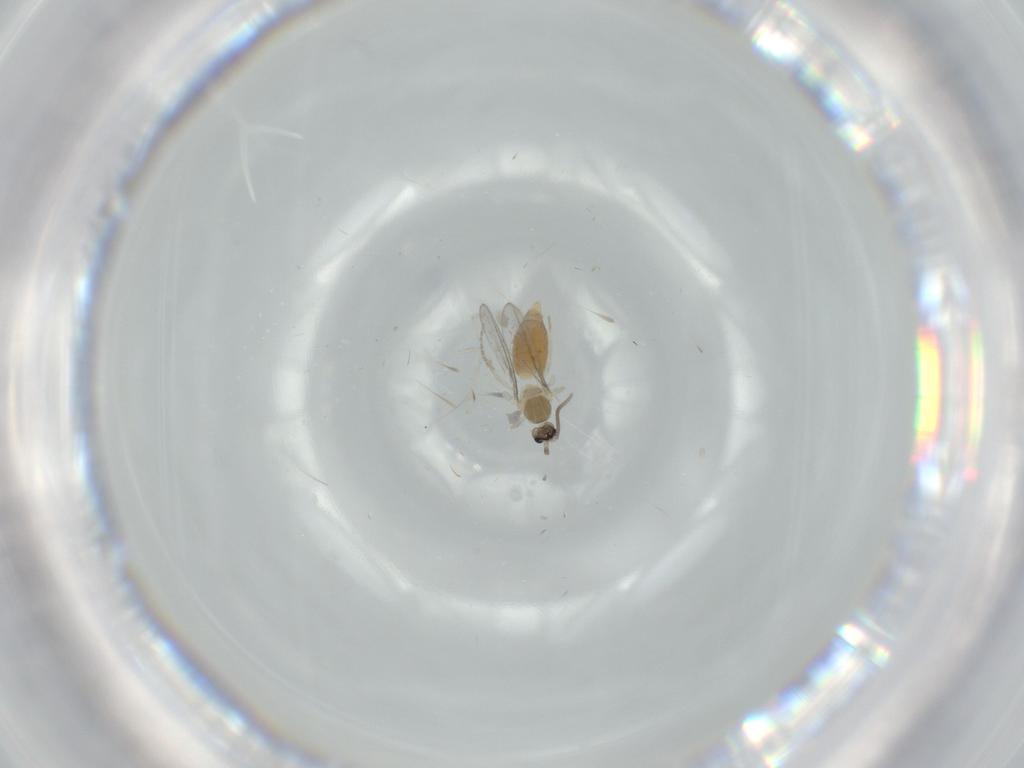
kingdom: Animalia
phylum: Arthropoda
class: Insecta
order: Diptera
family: Cecidomyiidae
